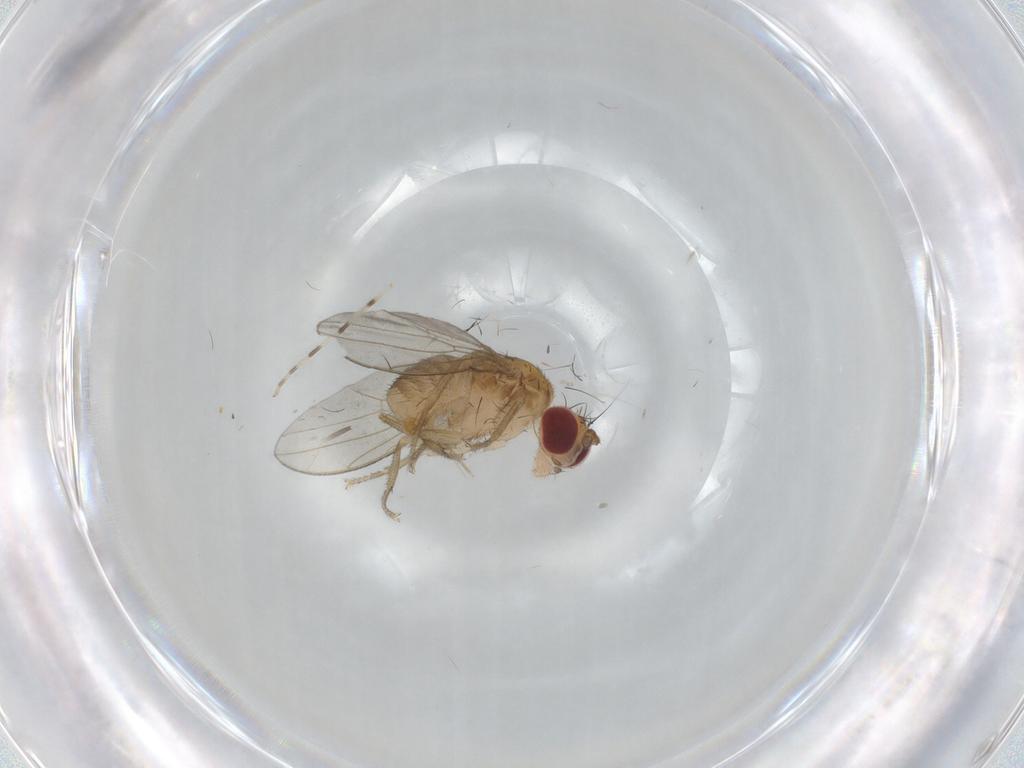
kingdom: Animalia
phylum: Arthropoda
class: Insecta
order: Diptera
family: Drosophilidae
